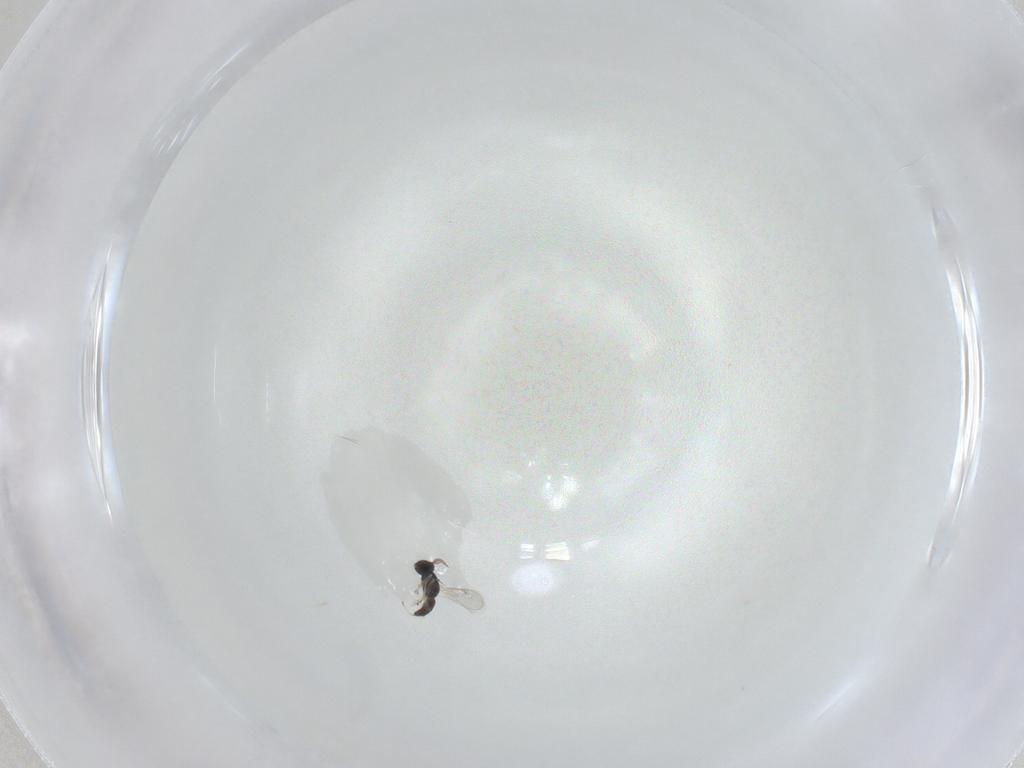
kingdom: Animalia
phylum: Arthropoda
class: Insecta
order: Hymenoptera
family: Eulophidae
